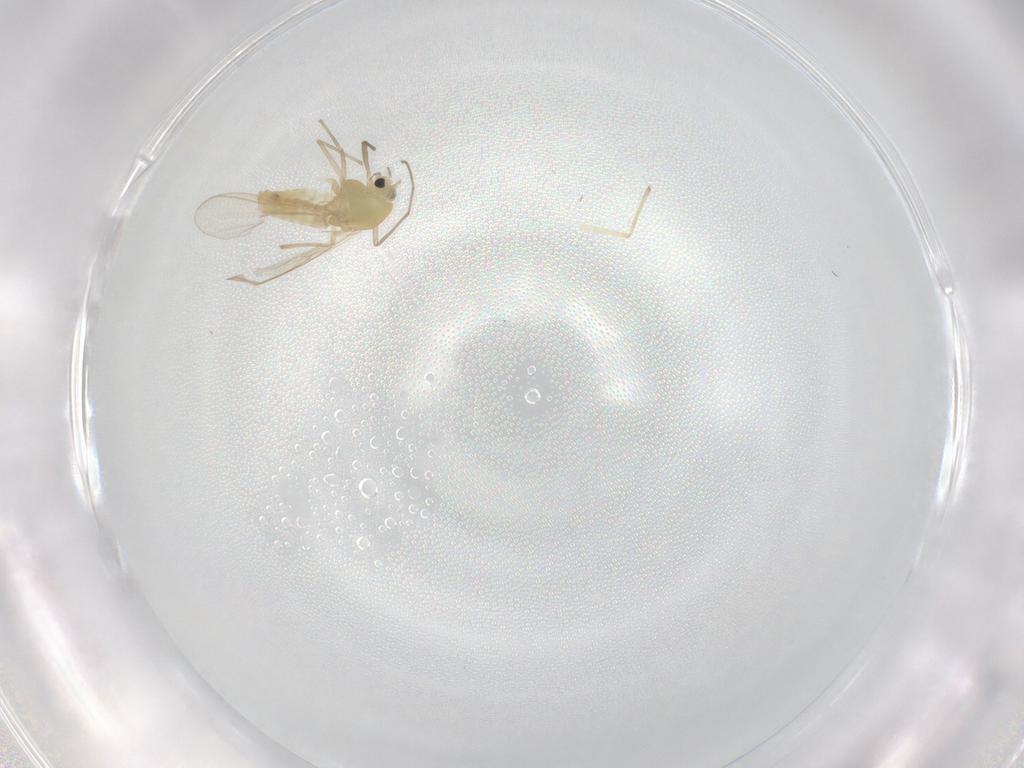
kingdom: Animalia
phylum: Arthropoda
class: Insecta
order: Diptera
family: Chironomidae
